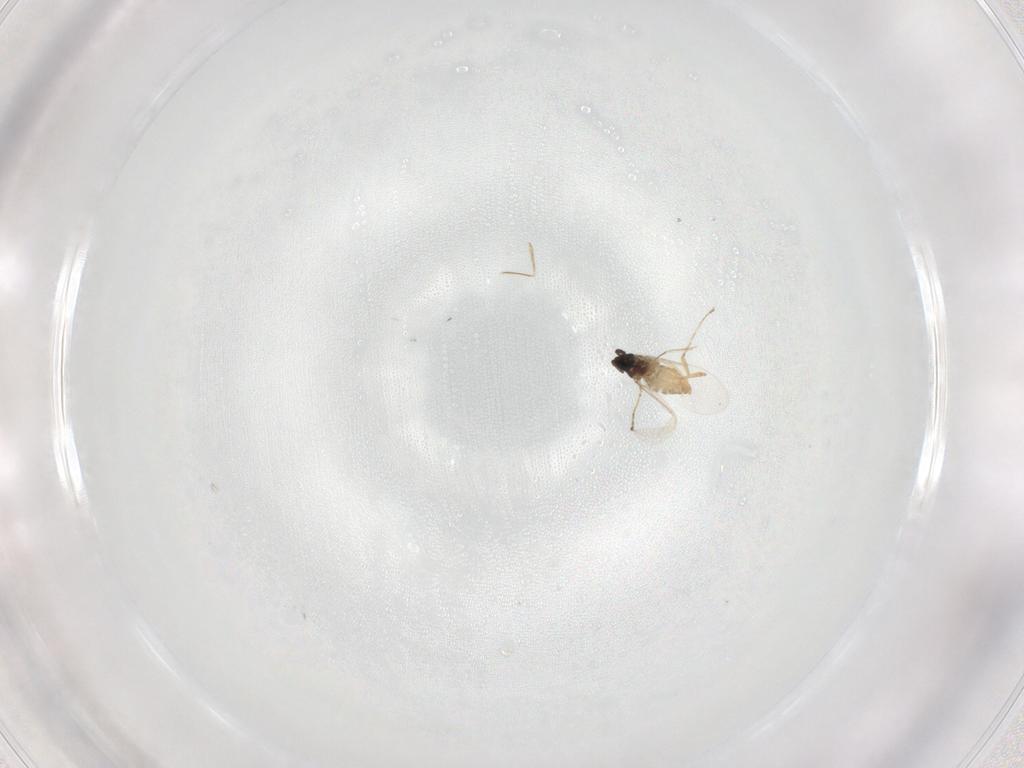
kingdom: Animalia
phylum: Arthropoda
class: Insecta
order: Diptera
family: Cecidomyiidae
